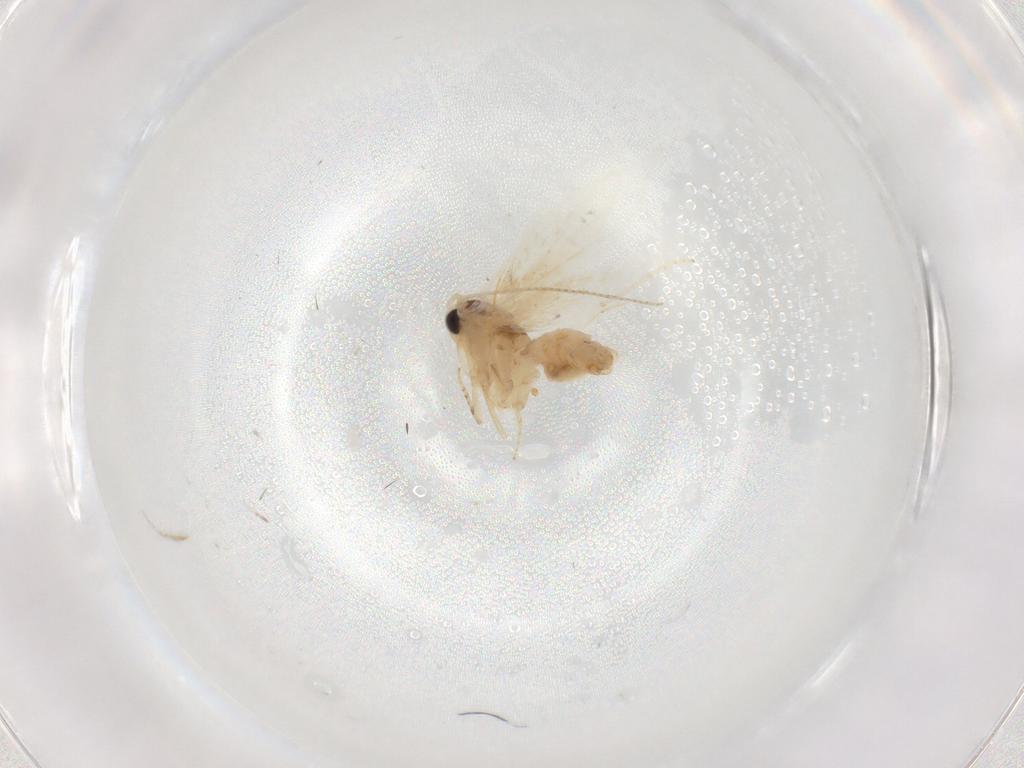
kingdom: Animalia
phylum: Arthropoda
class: Insecta
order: Lepidoptera
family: Bucculatricidae
